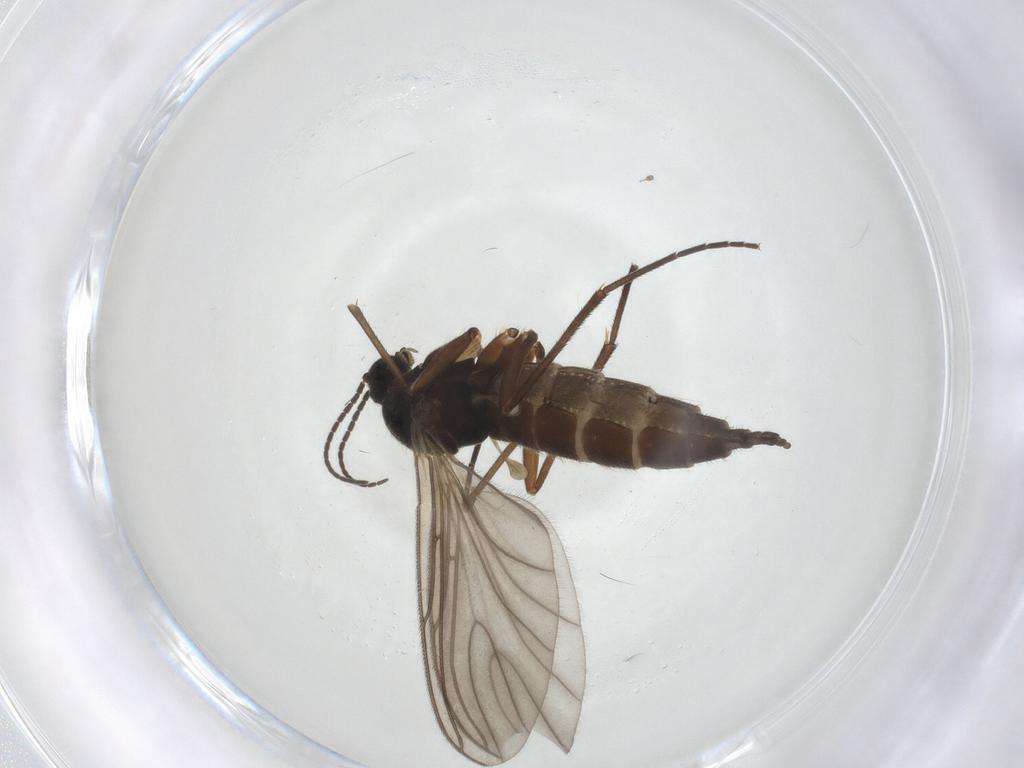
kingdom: Animalia
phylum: Arthropoda
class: Insecta
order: Diptera
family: Sciaridae
